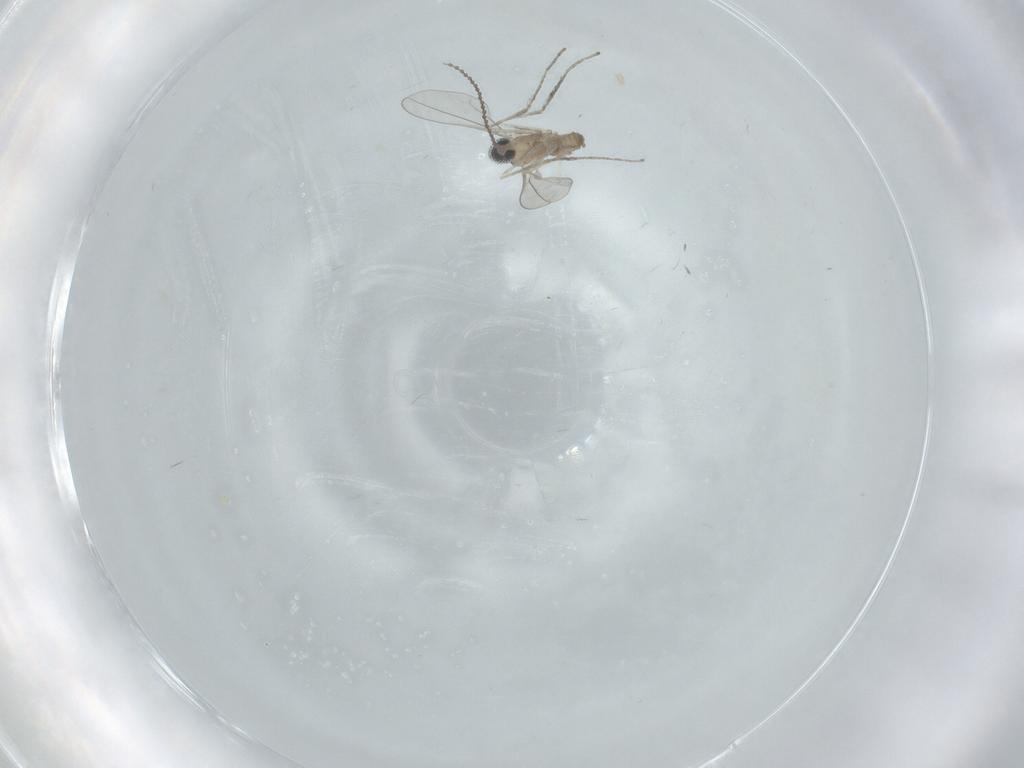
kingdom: Animalia
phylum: Arthropoda
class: Insecta
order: Diptera
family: Cecidomyiidae
